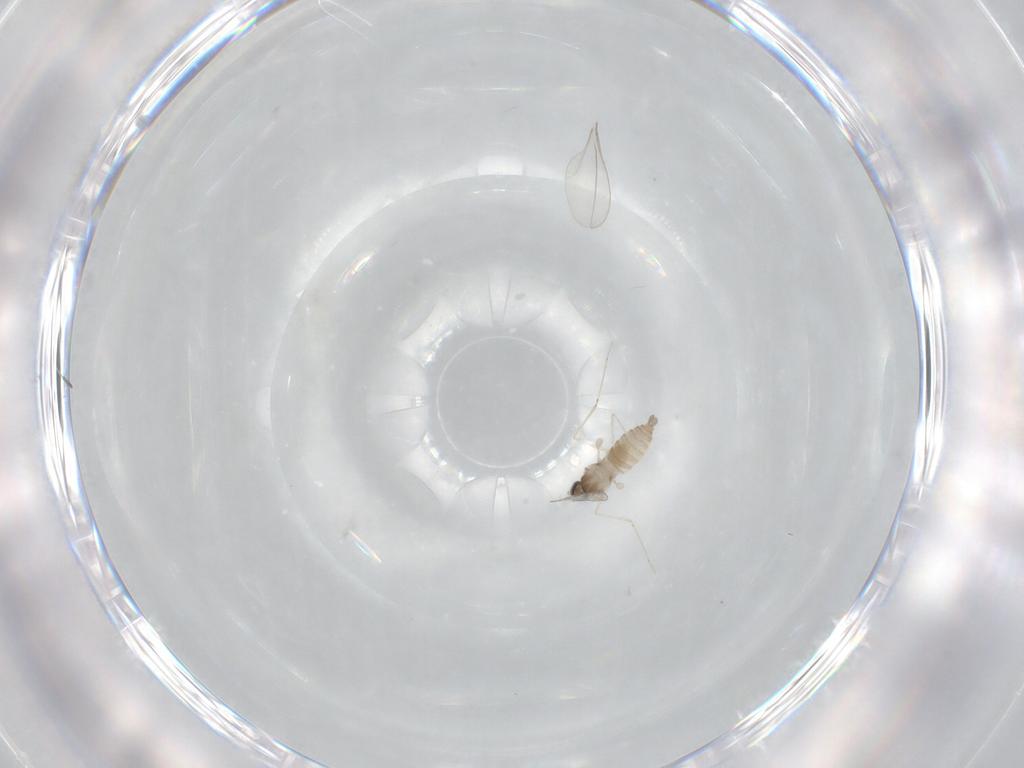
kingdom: Animalia
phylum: Arthropoda
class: Insecta
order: Diptera
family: Cecidomyiidae
